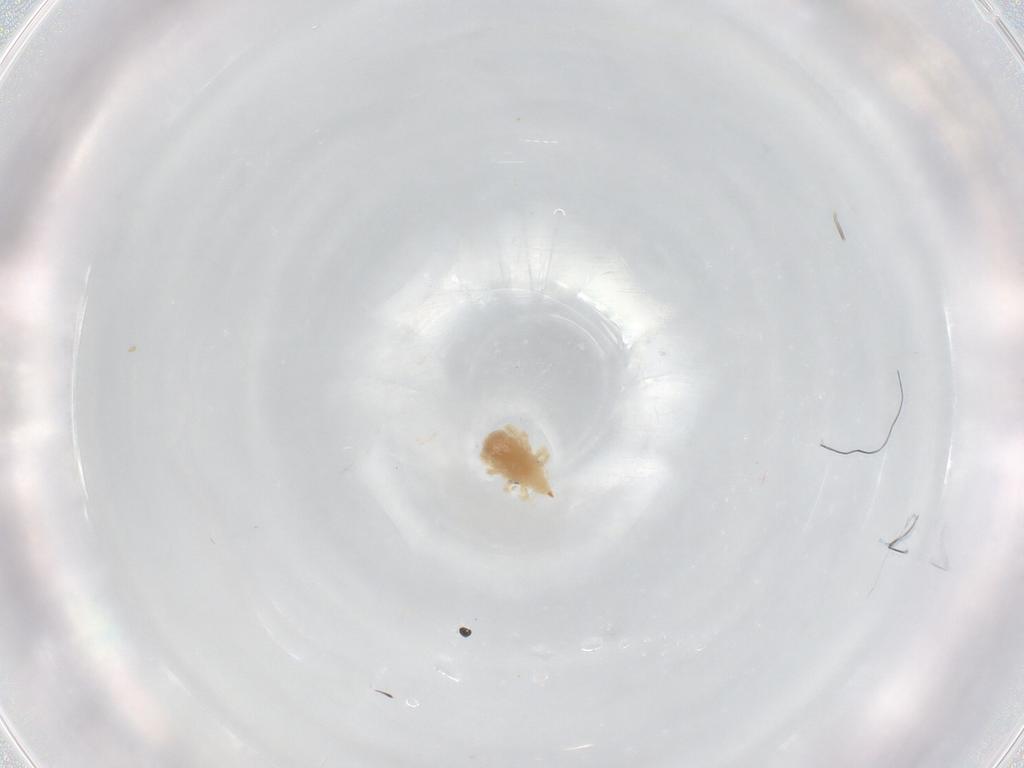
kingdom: Animalia
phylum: Arthropoda
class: Arachnida
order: Trombidiformes
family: Bdellidae
